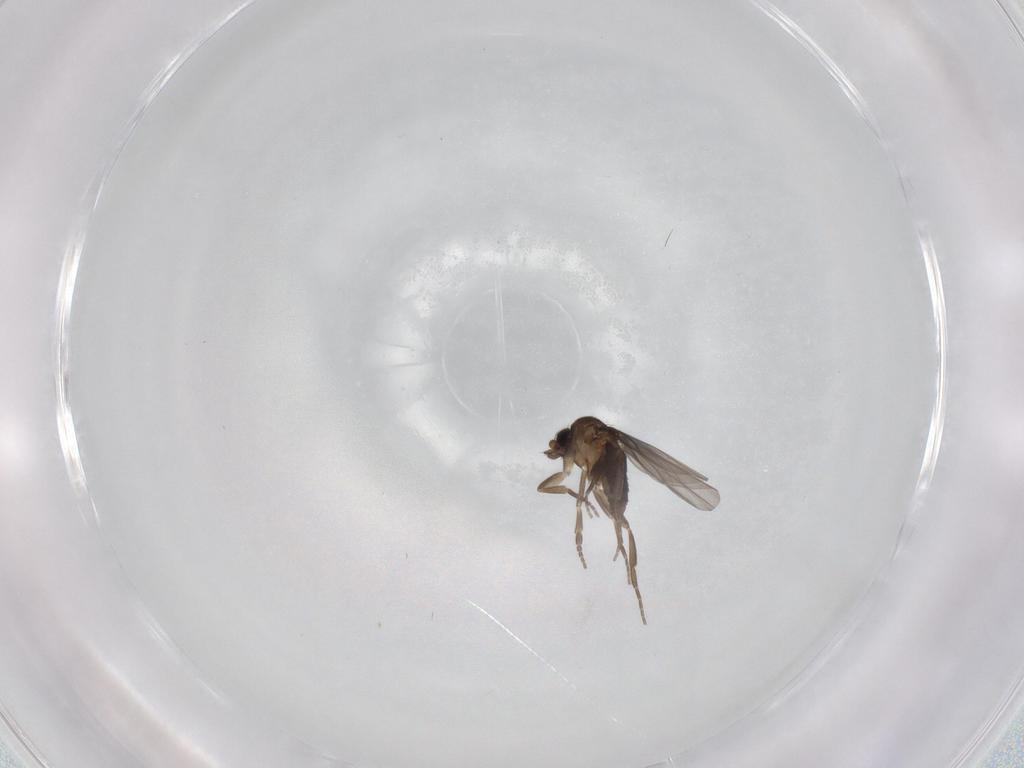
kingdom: Animalia
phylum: Arthropoda
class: Insecta
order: Diptera
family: Phoridae
